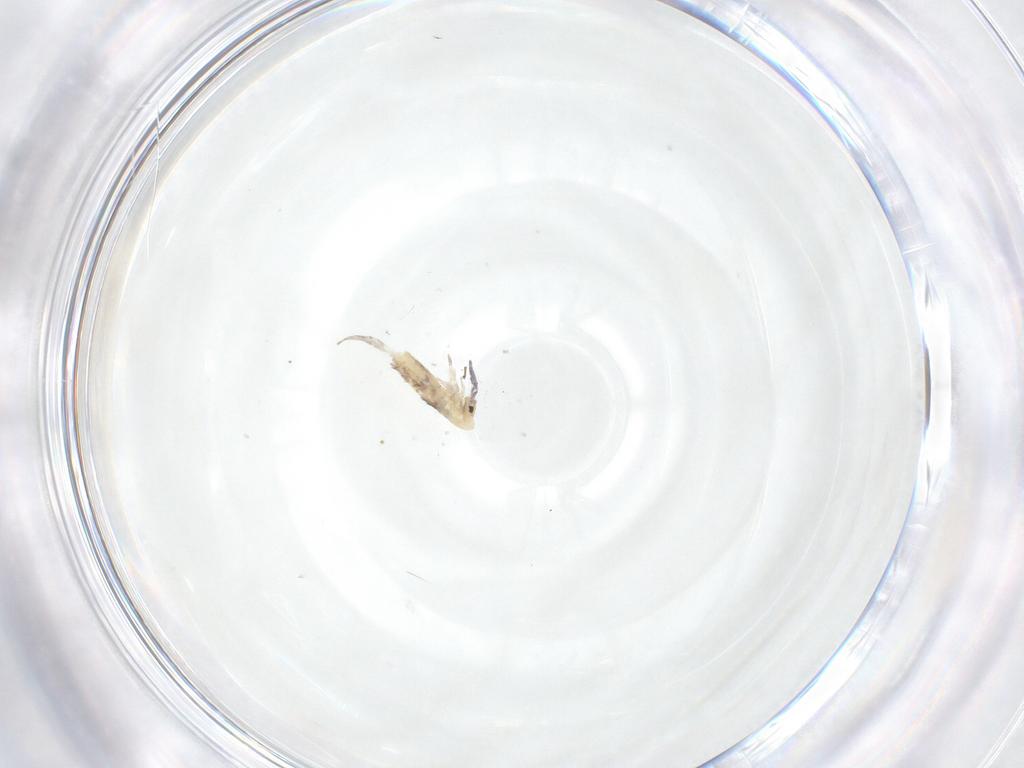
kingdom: Animalia
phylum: Arthropoda
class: Collembola
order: Entomobryomorpha
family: Entomobryidae
